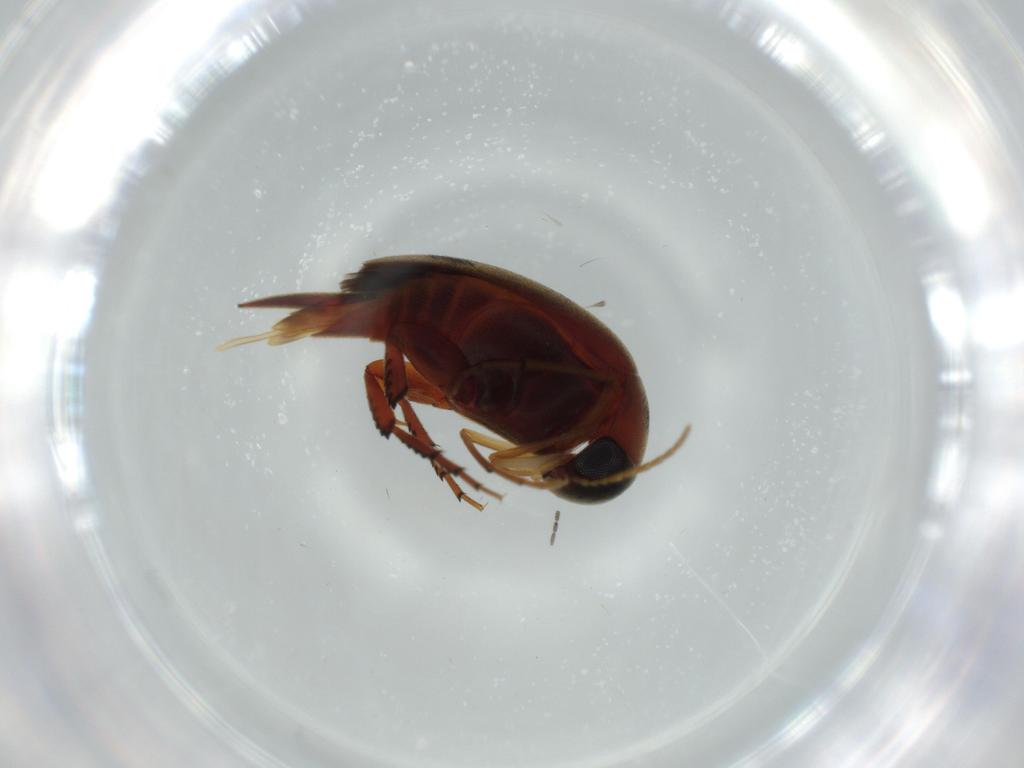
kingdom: Animalia
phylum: Arthropoda
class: Insecta
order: Coleoptera
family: Mordellidae
